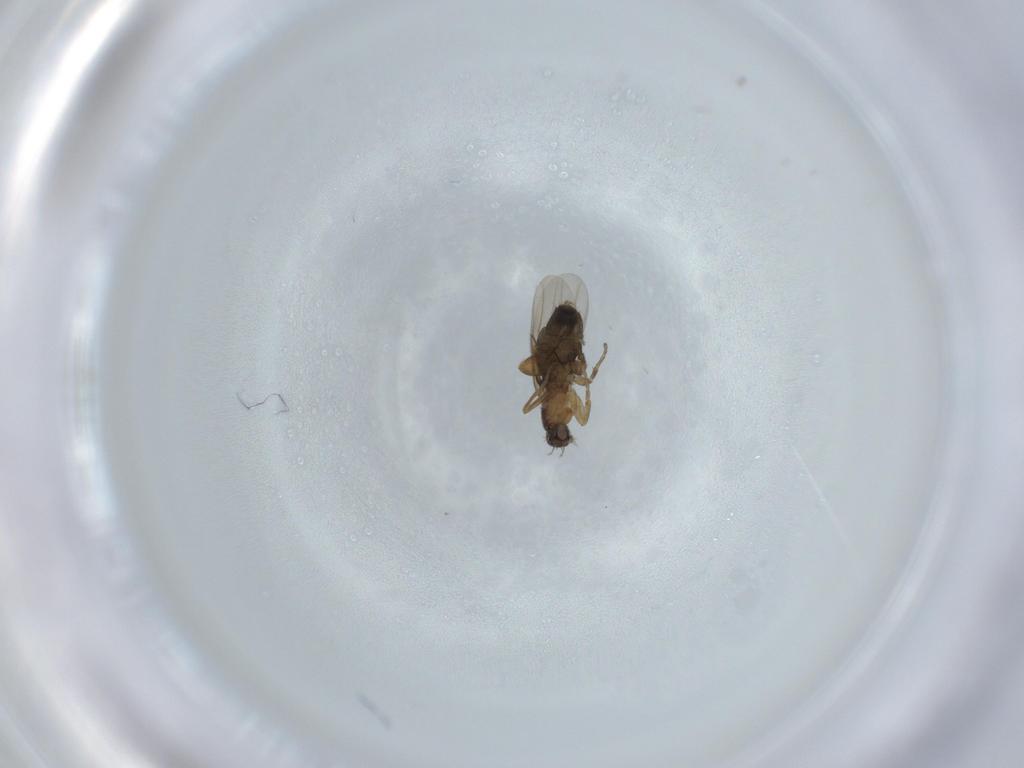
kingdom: Animalia
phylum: Arthropoda
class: Insecta
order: Diptera
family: Phoridae
